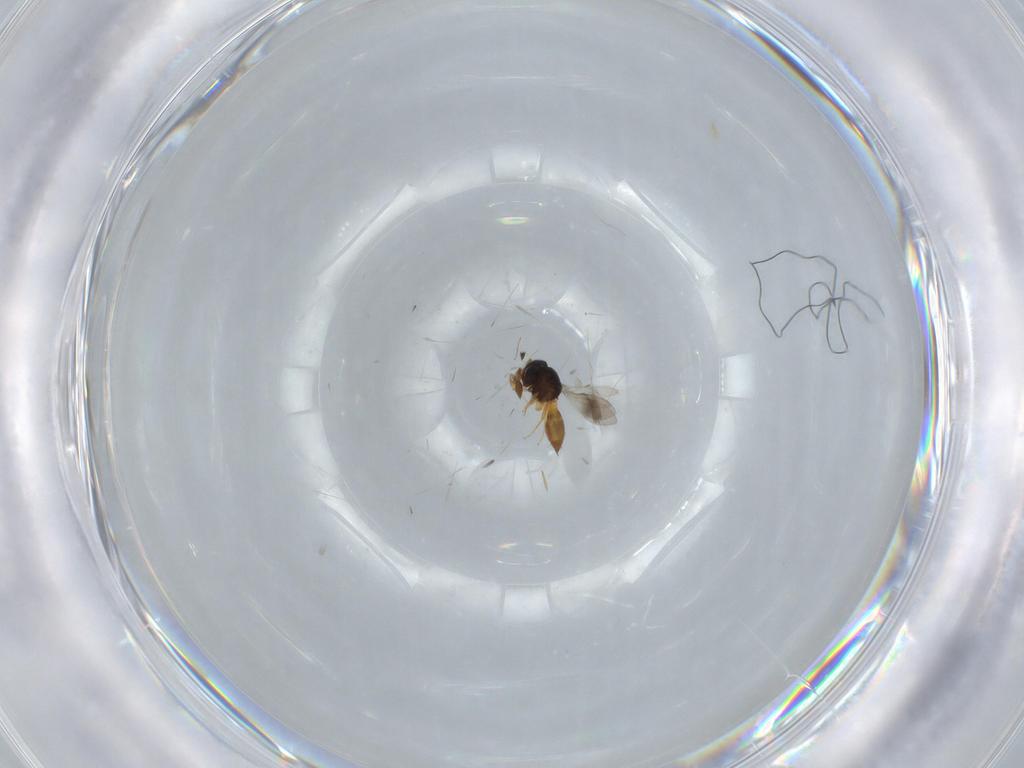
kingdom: Animalia
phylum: Arthropoda
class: Insecta
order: Hymenoptera
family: Scelionidae
